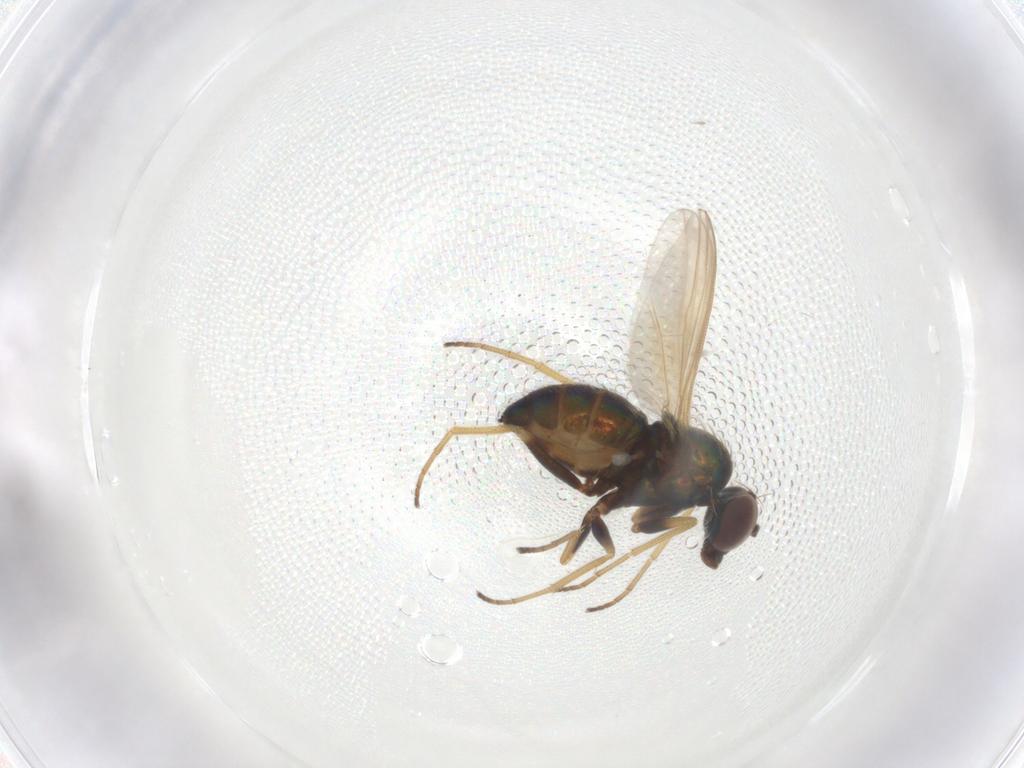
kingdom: Animalia
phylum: Arthropoda
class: Insecta
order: Diptera
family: Dolichopodidae
